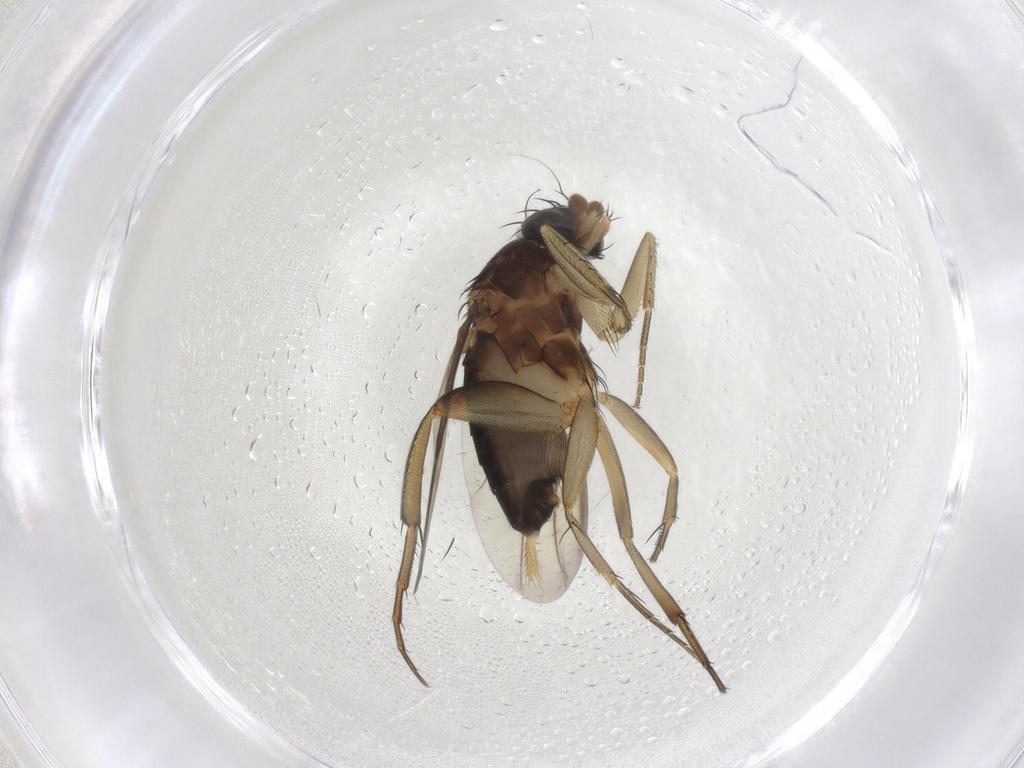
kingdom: Animalia
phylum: Arthropoda
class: Insecta
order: Diptera
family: Phoridae
